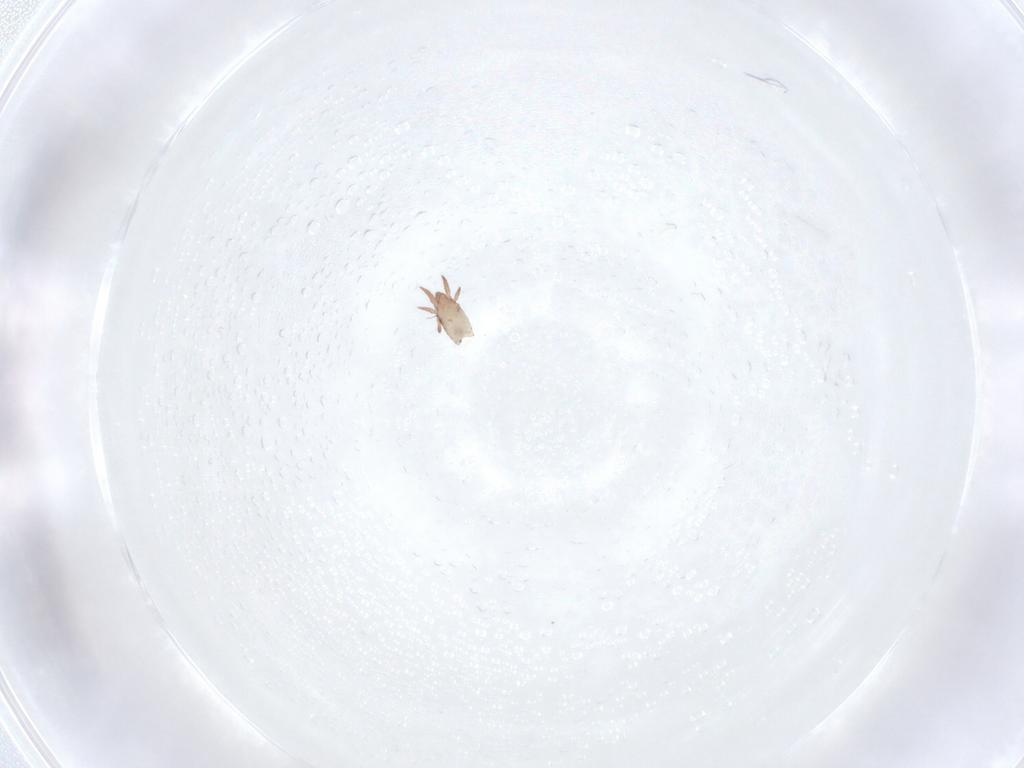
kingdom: Animalia
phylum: Arthropoda
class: Arachnida
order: Sarcoptiformes
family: Nothridae
